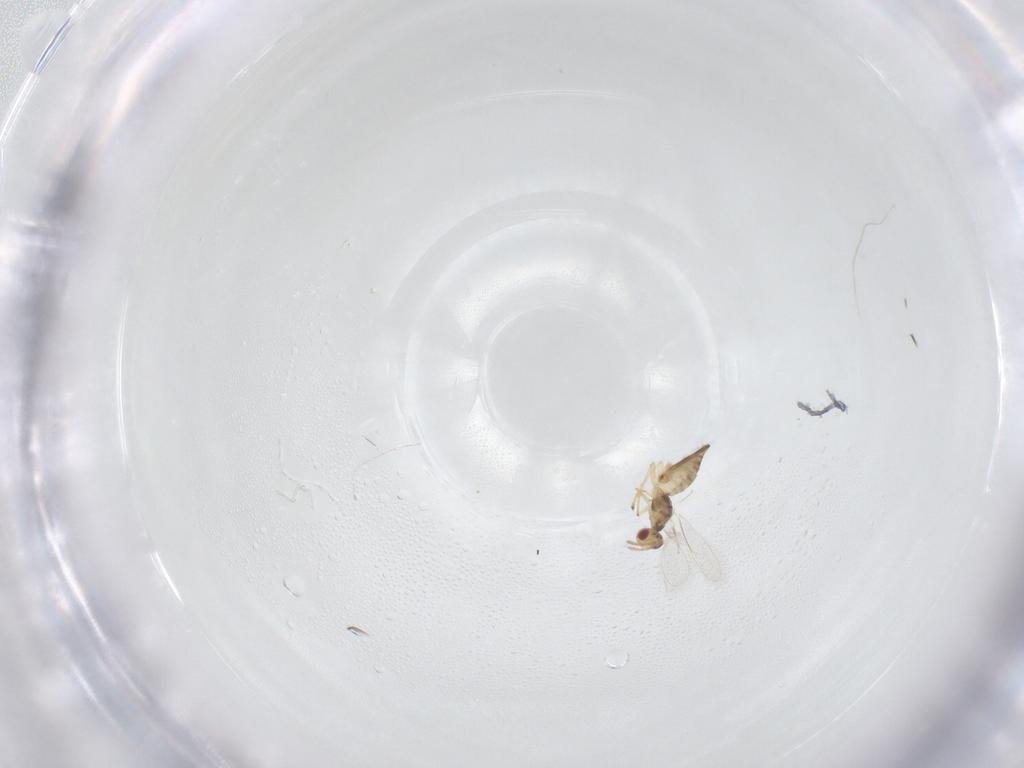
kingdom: Animalia
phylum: Arthropoda
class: Insecta
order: Hymenoptera
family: Eulophidae
